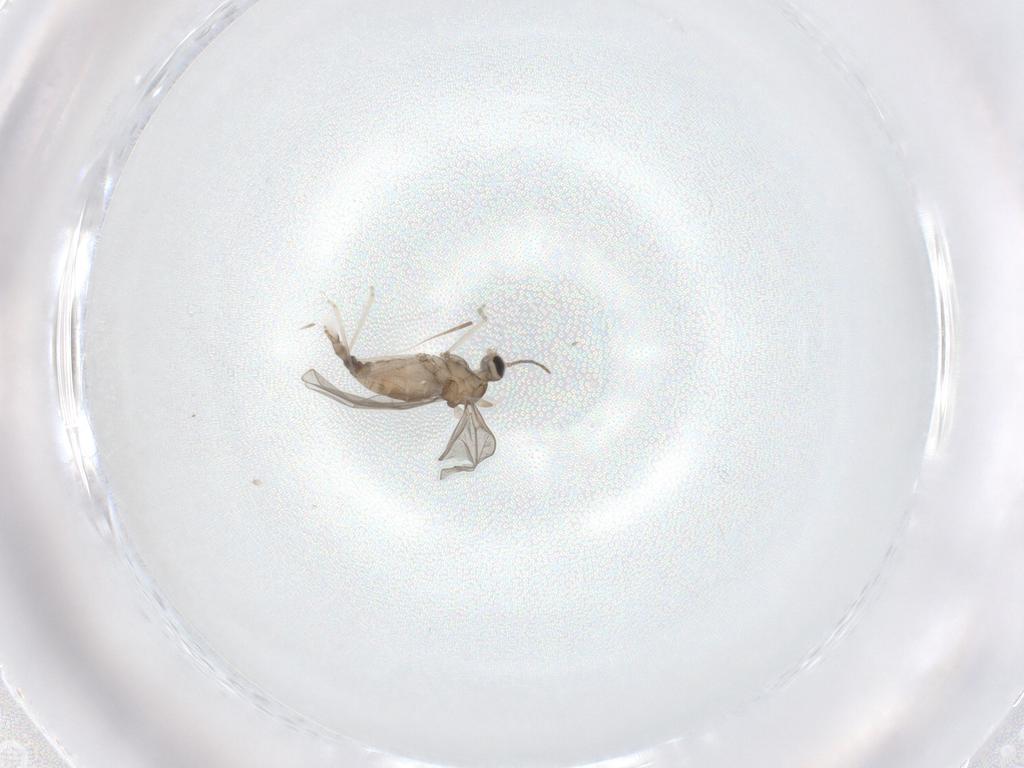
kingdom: Animalia
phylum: Arthropoda
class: Insecta
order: Diptera
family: Cecidomyiidae
